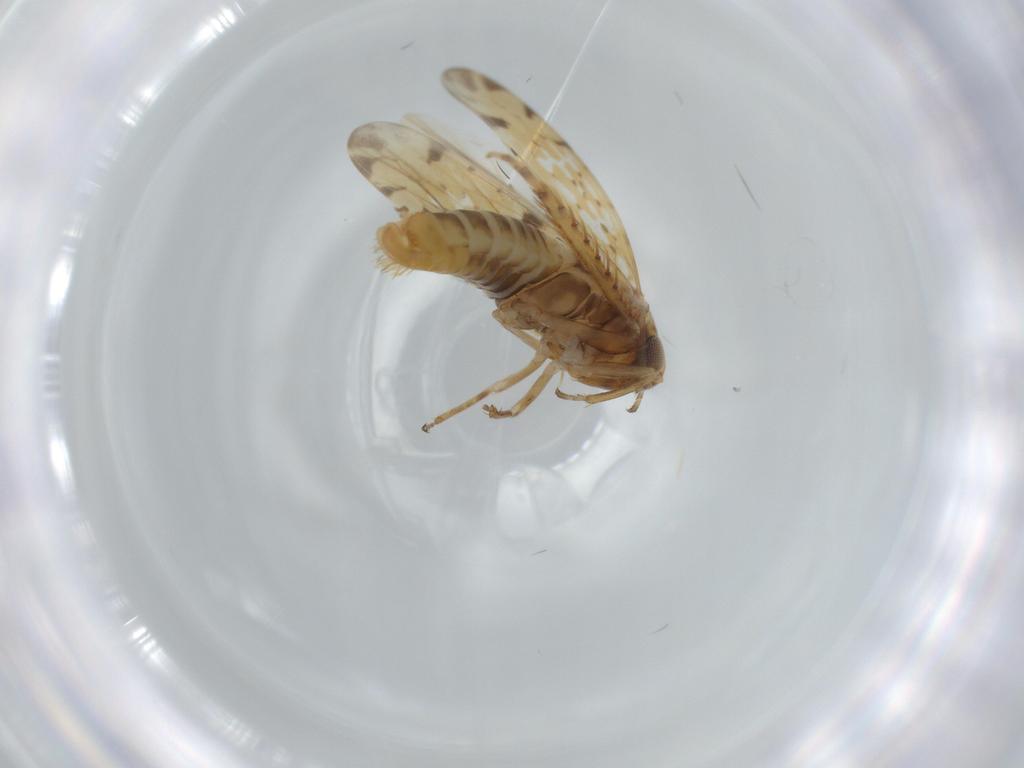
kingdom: Animalia
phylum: Arthropoda
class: Insecta
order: Hemiptera
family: Cicadellidae
